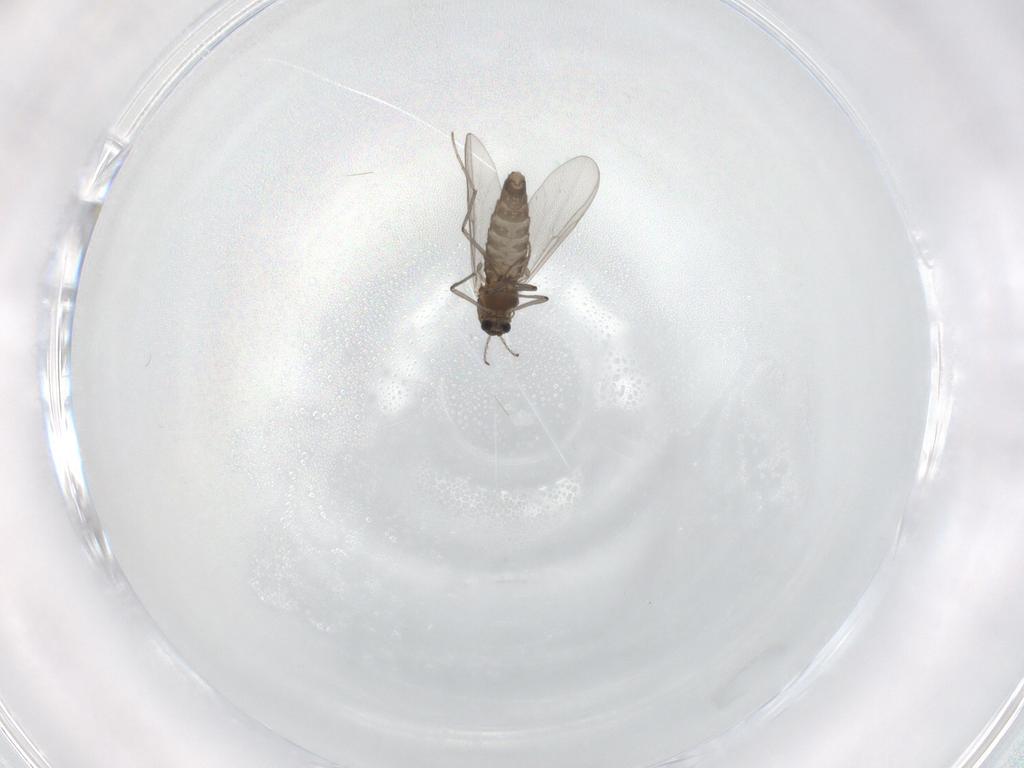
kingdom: Animalia
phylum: Arthropoda
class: Insecta
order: Diptera
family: Chironomidae
